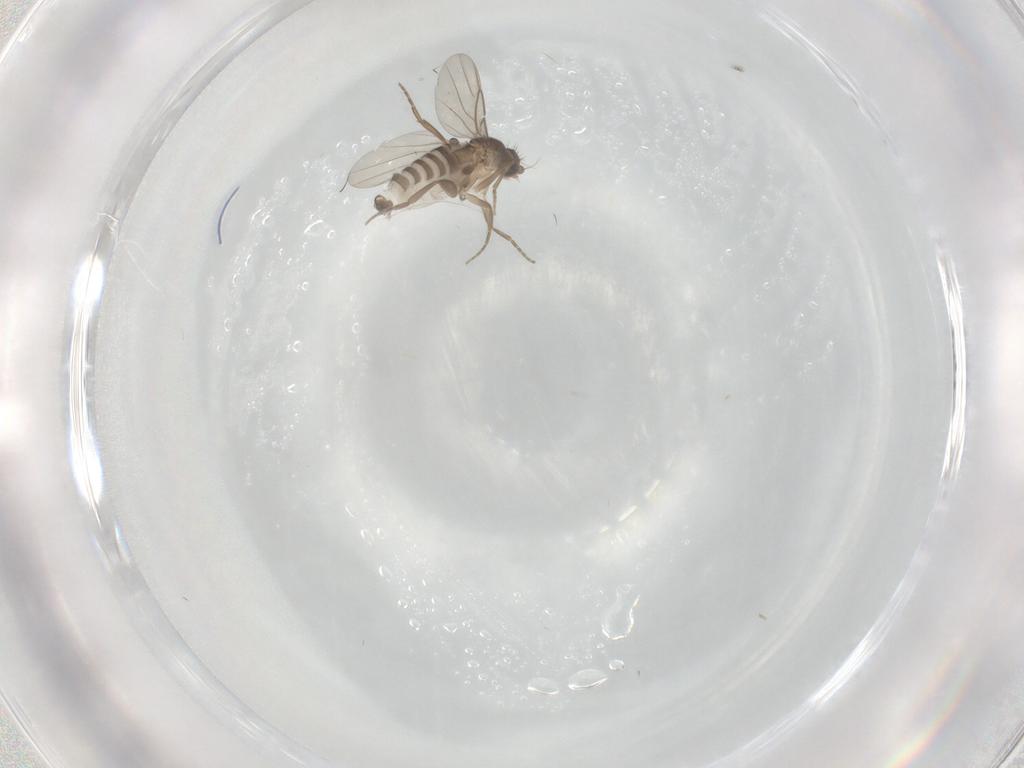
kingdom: Animalia
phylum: Arthropoda
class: Insecta
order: Diptera
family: Phoridae
